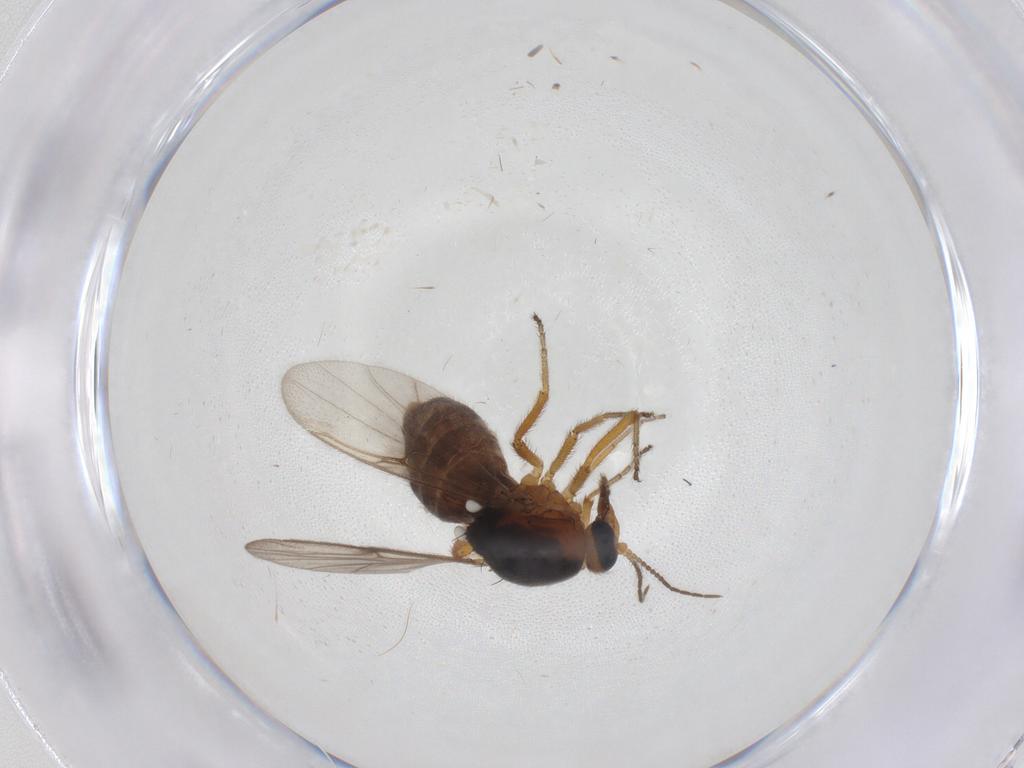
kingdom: Animalia
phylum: Arthropoda
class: Insecta
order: Diptera
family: Ceratopogonidae
